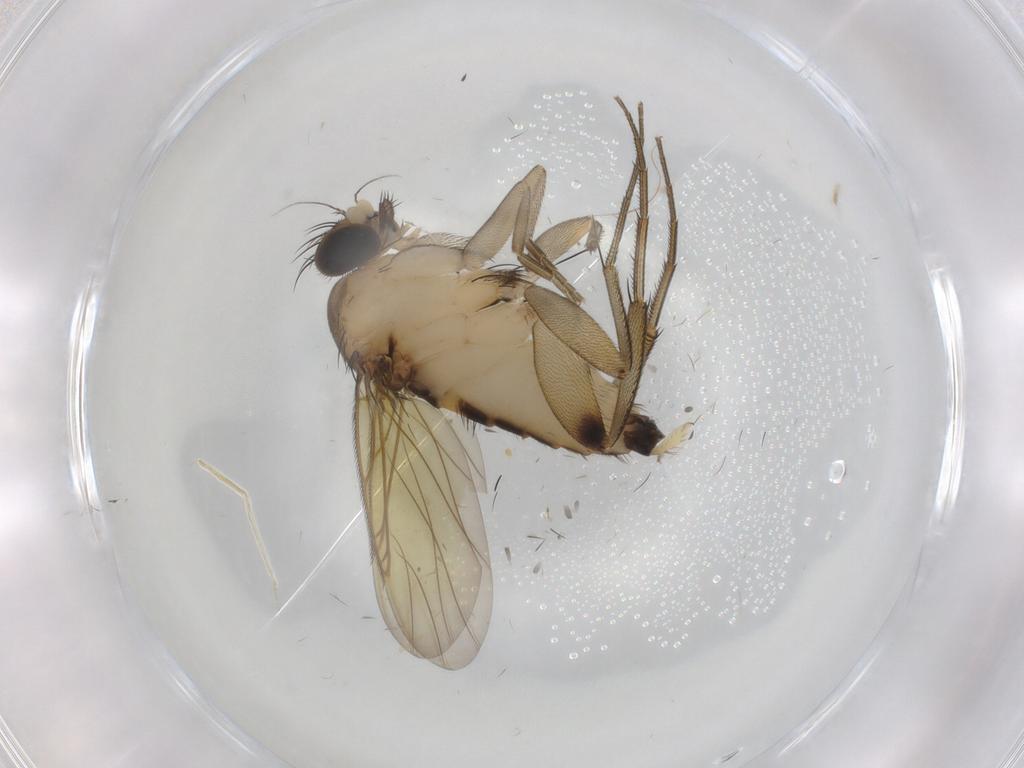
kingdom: Animalia
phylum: Arthropoda
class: Insecta
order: Diptera
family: Phoridae
